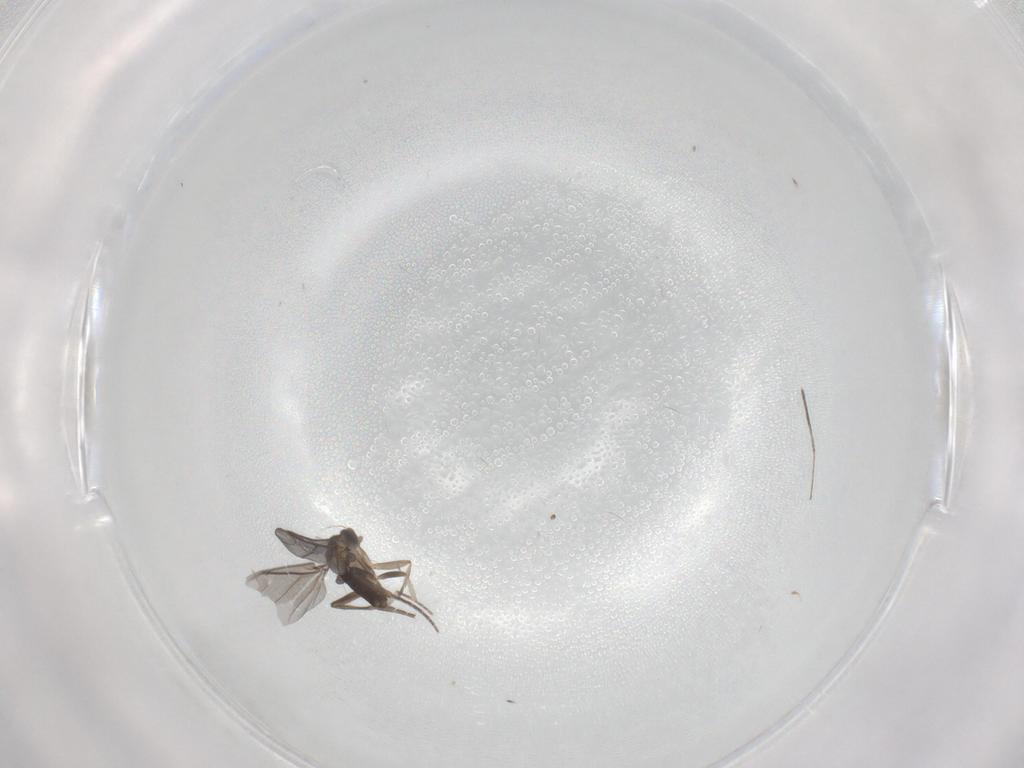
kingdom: Animalia
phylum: Arthropoda
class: Insecta
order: Diptera
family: Phoridae
